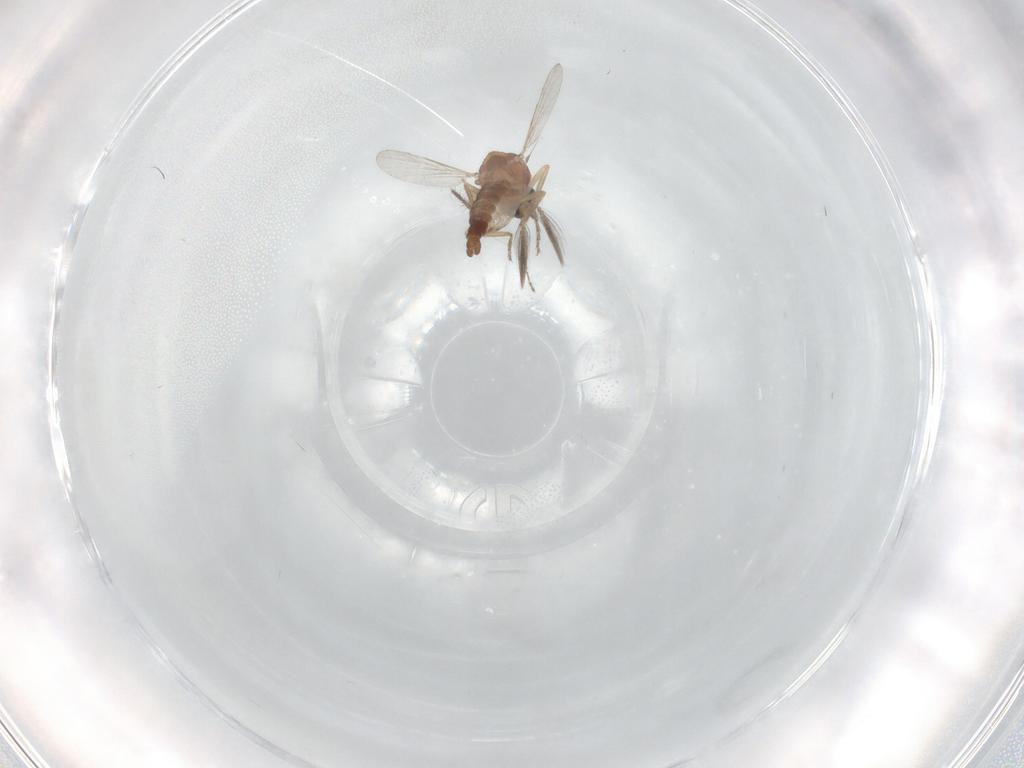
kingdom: Animalia
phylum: Arthropoda
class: Insecta
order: Diptera
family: Ceratopogonidae
